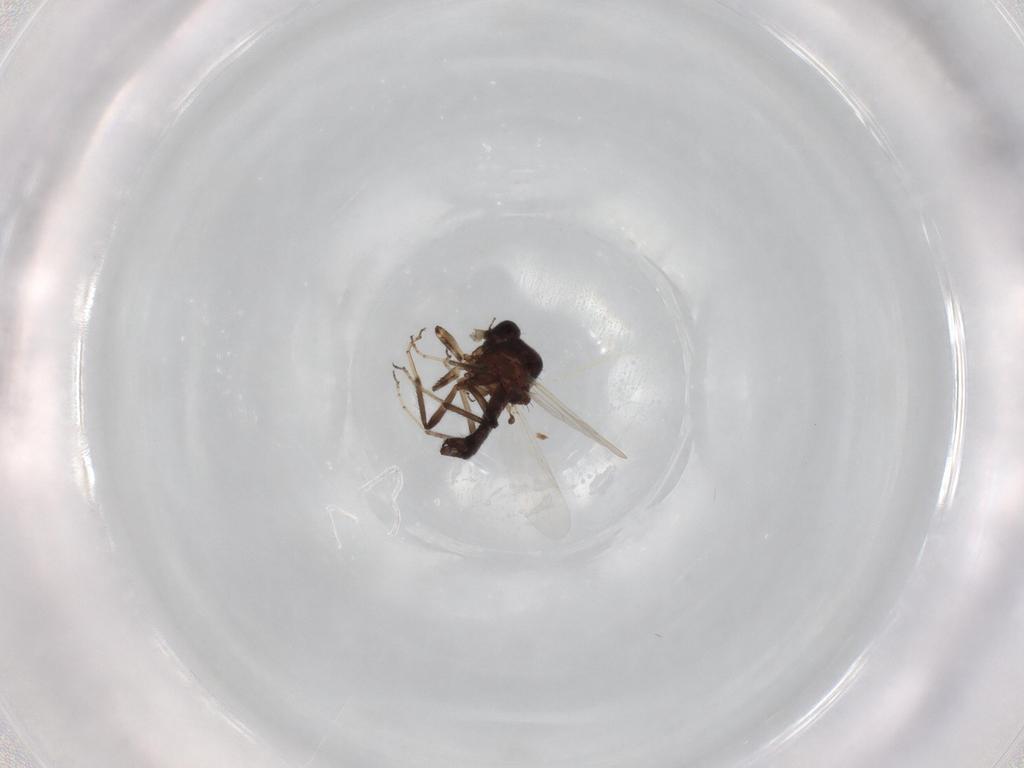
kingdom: Animalia
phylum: Arthropoda
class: Insecta
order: Diptera
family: Ceratopogonidae
